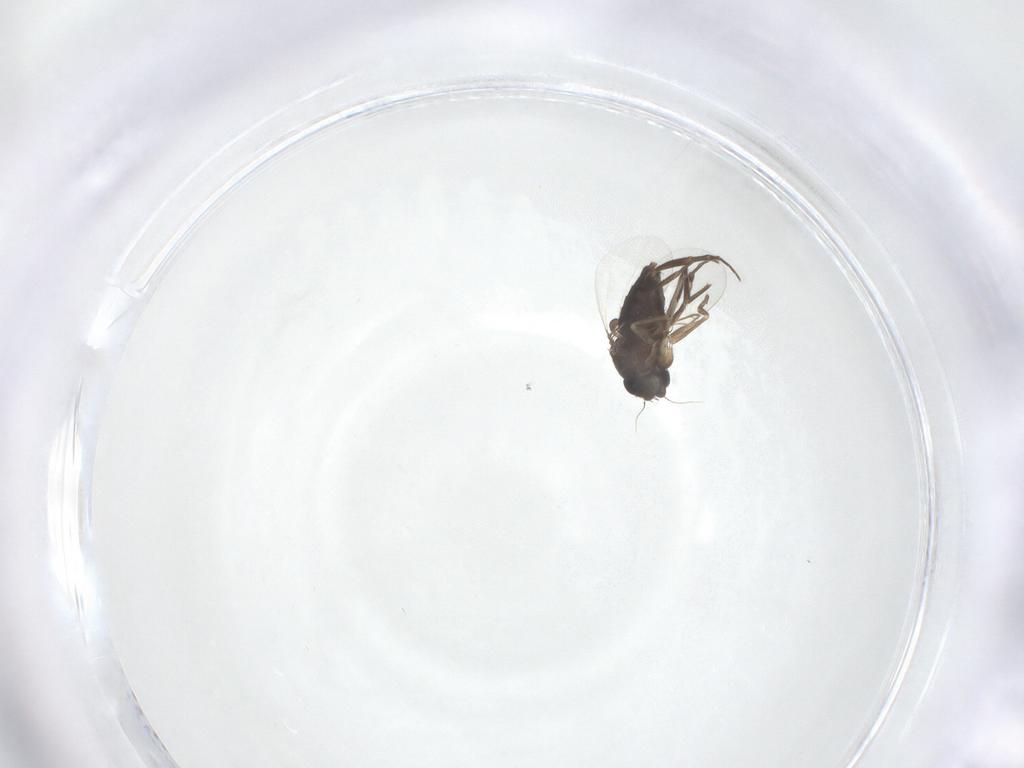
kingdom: Animalia
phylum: Arthropoda
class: Insecta
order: Diptera
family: Phoridae
